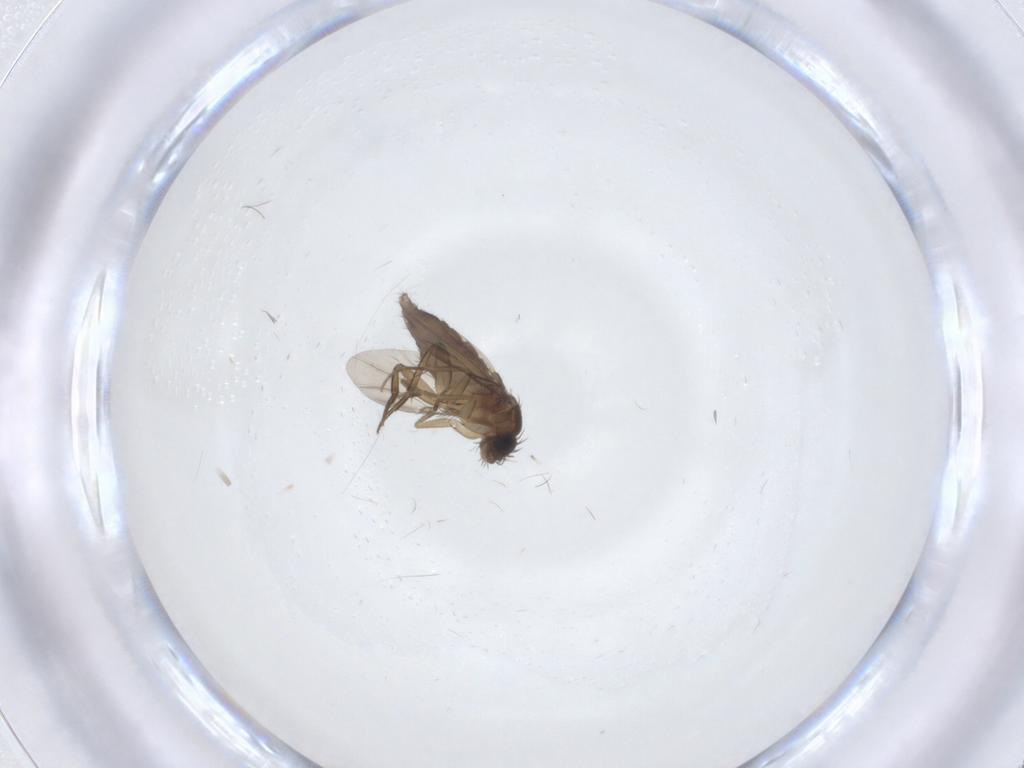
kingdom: Animalia
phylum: Arthropoda
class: Insecta
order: Diptera
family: Phoridae
